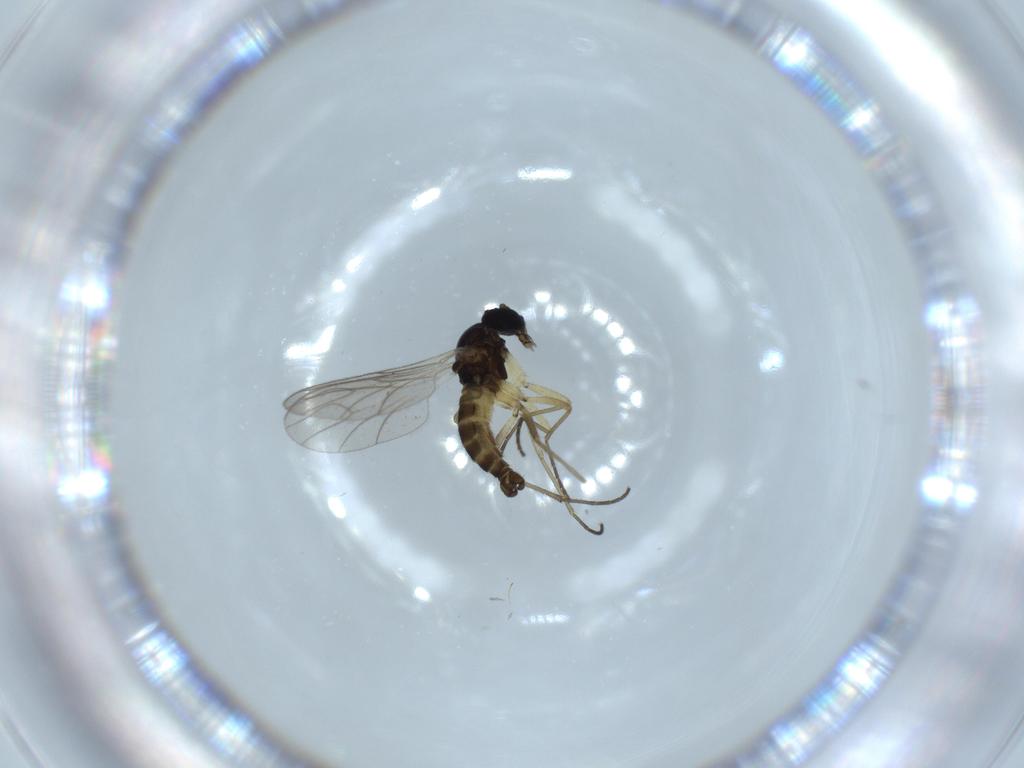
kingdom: Animalia
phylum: Arthropoda
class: Insecta
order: Diptera
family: Sciaridae
